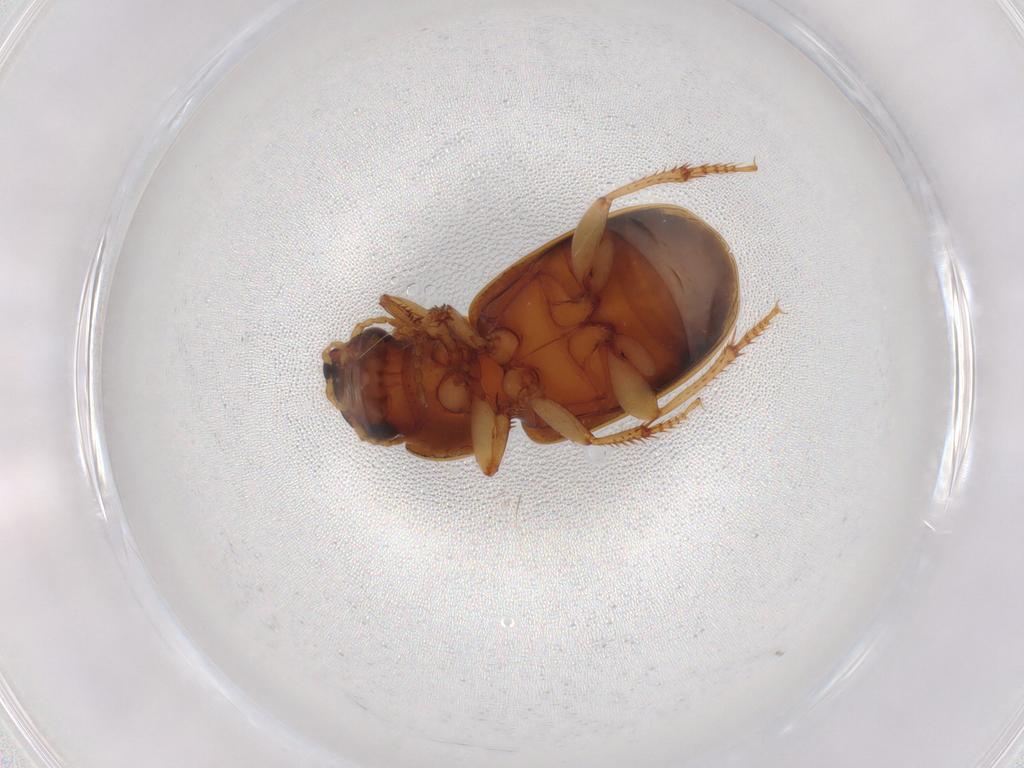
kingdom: Animalia
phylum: Arthropoda
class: Insecta
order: Coleoptera
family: Carabidae
